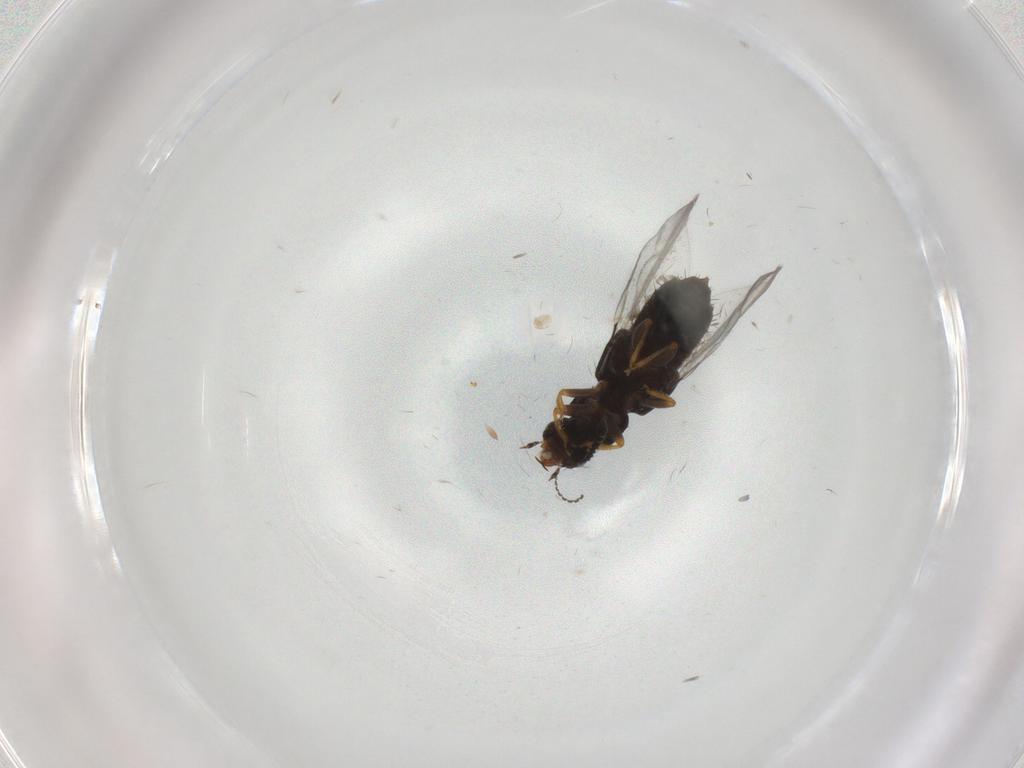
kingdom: Animalia
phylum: Arthropoda
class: Insecta
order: Coleoptera
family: Staphylinidae
